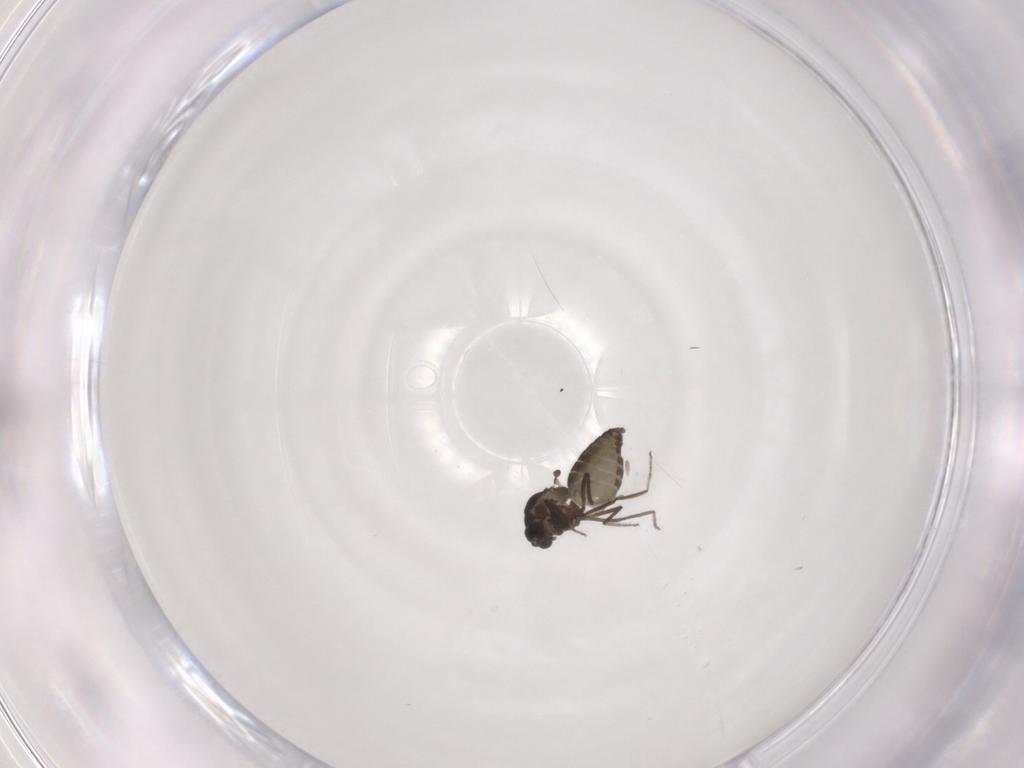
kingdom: Animalia
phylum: Arthropoda
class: Insecta
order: Diptera
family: Ceratopogonidae
